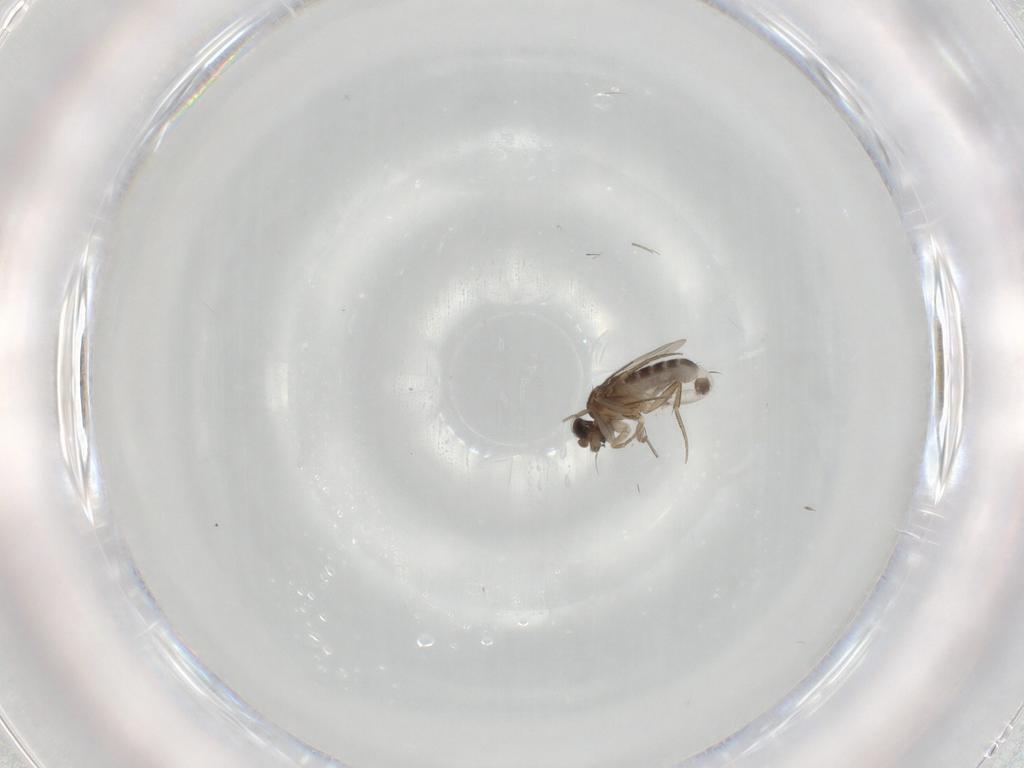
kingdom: Animalia
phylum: Arthropoda
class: Insecta
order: Diptera
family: Phoridae
